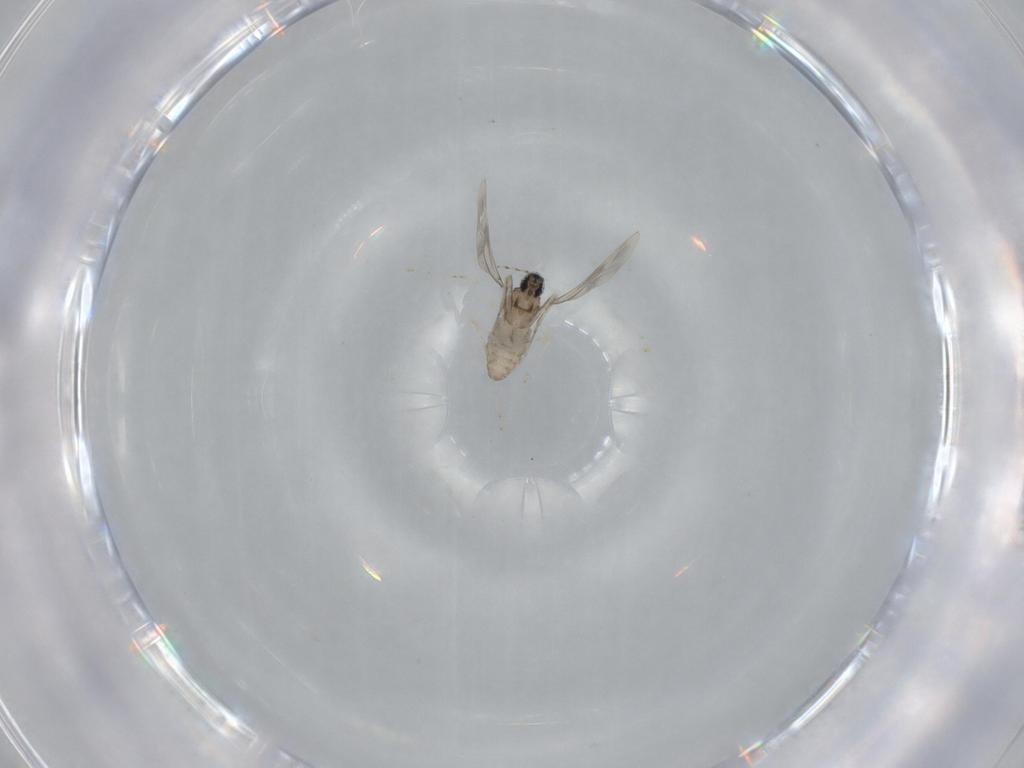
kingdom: Animalia
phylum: Arthropoda
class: Insecta
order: Diptera
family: Cecidomyiidae
